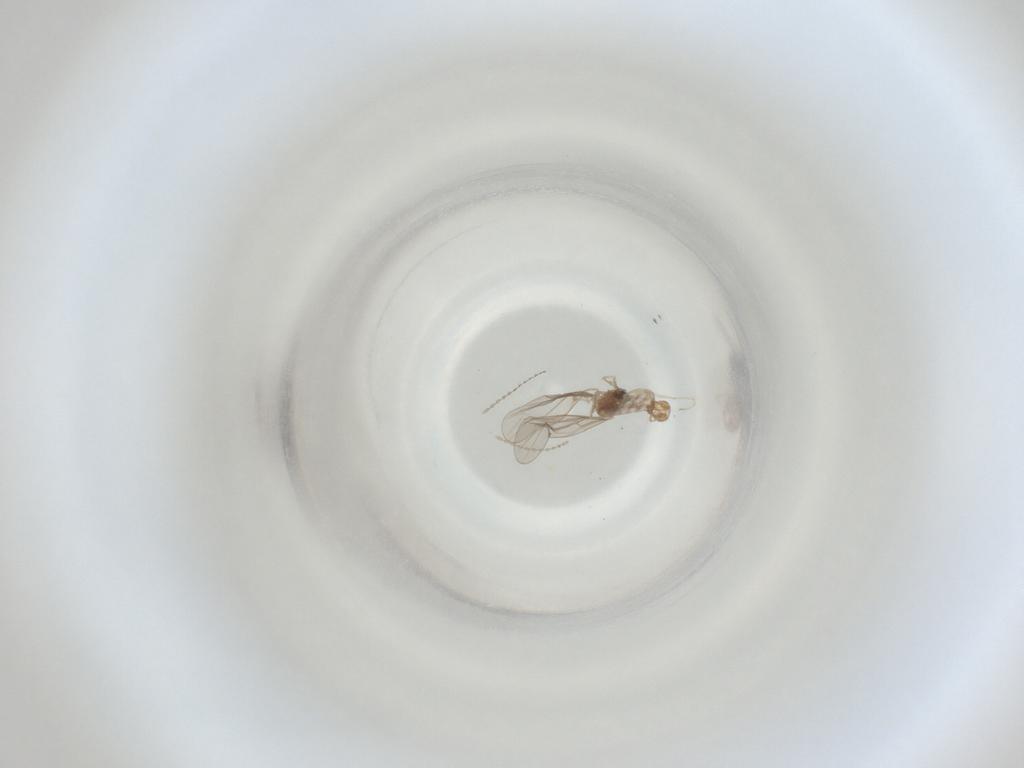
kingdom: Animalia
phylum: Arthropoda
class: Insecta
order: Diptera
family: Cecidomyiidae
